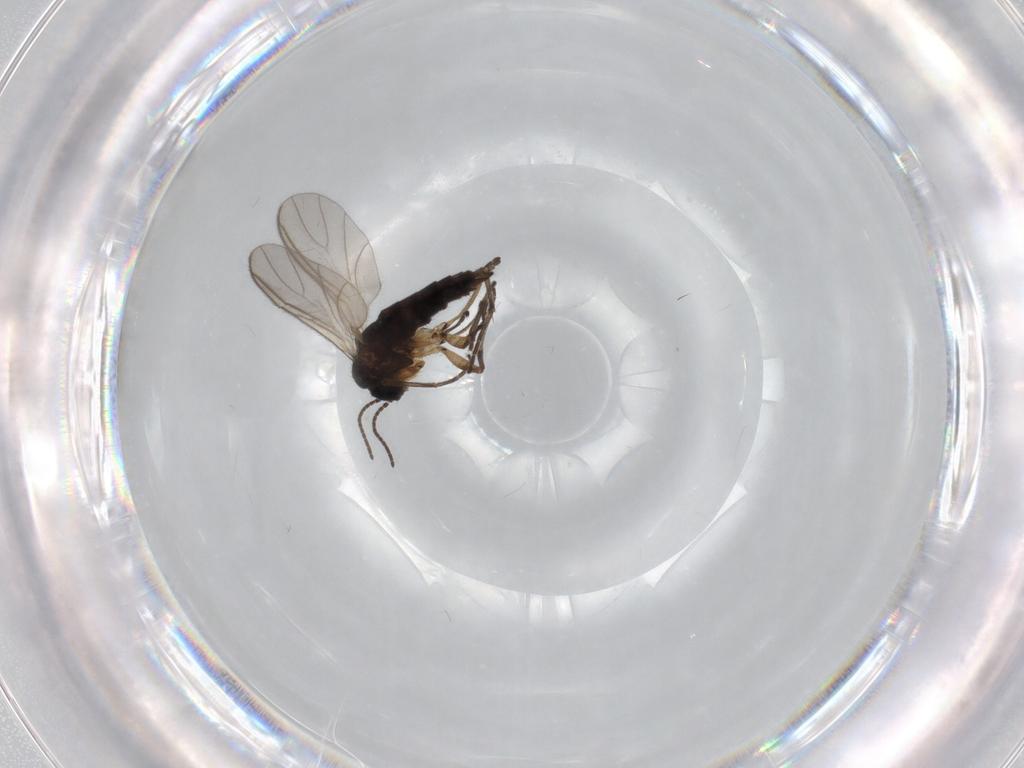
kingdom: Animalia
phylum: Arthropoda
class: Insecta
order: Diptera
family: Sciaridae
